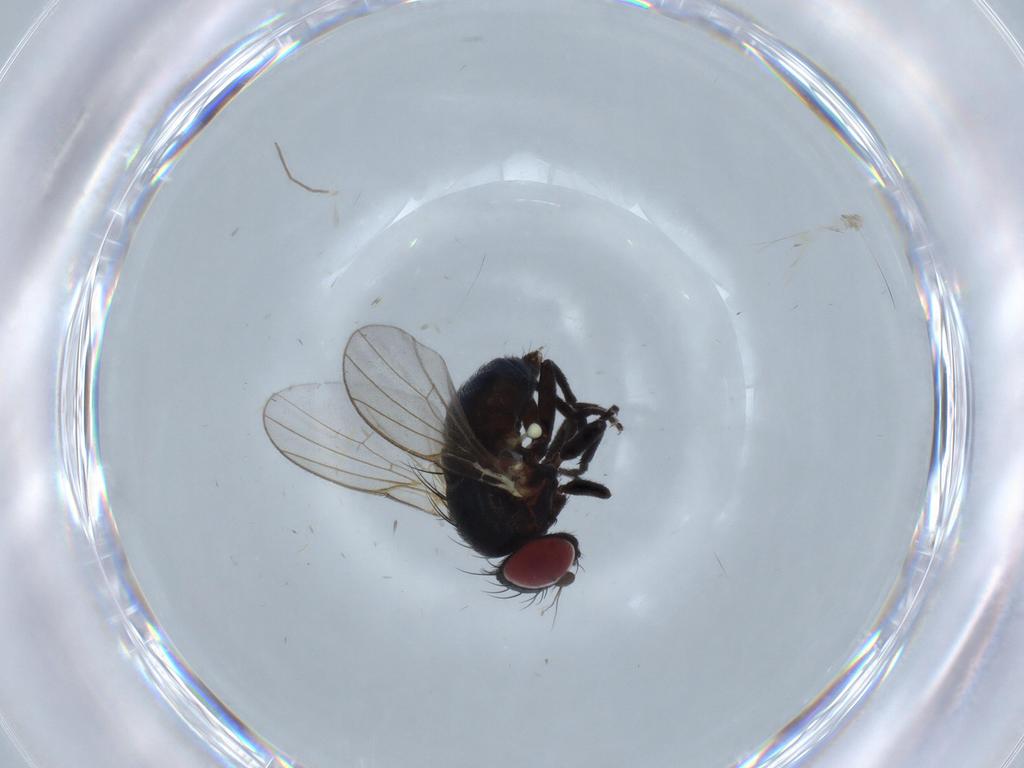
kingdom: Animalia
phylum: Arthropoda
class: Insecta
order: Diptera
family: Agromyzidae
